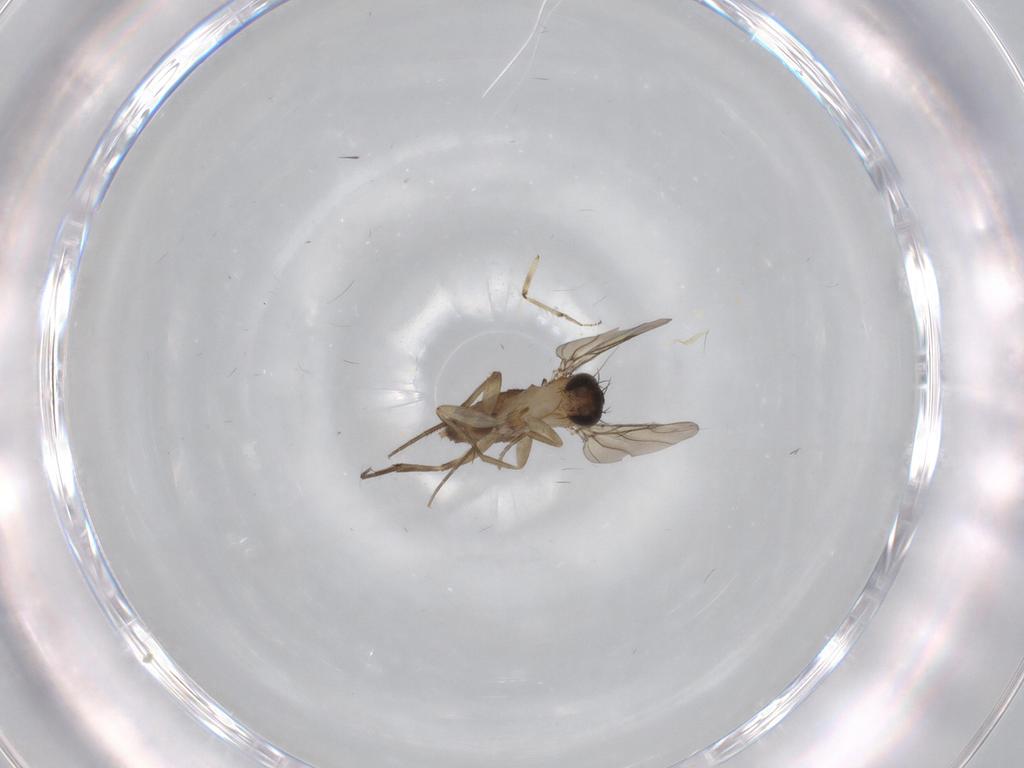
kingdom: Animalia
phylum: Arthropoda
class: Insecta
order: Diptera
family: Phoridae
